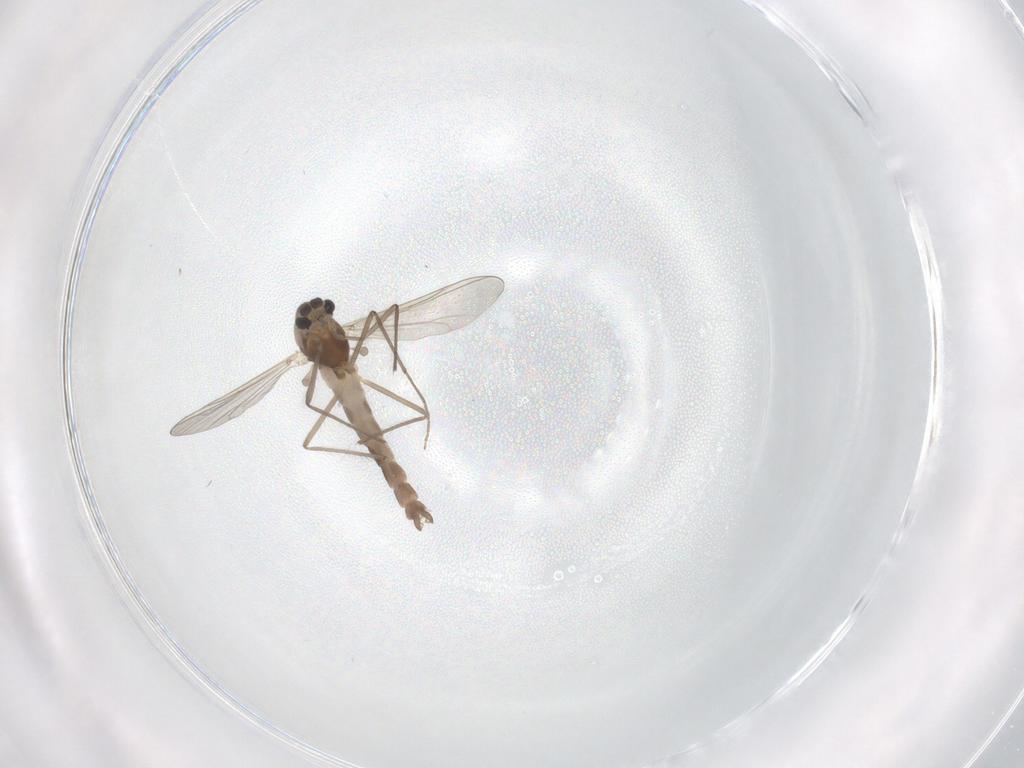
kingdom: Animalia
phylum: Arthropoda
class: Insecta
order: Diptera
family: Chironomidae
